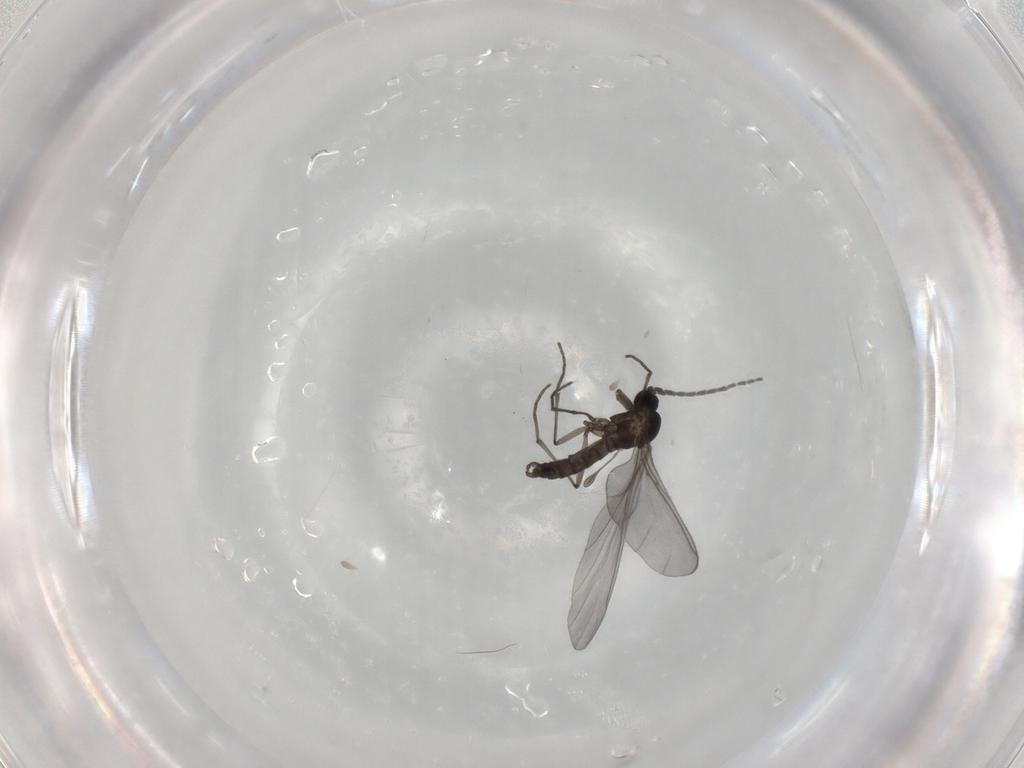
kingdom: Animalia
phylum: Arthropoda
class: Insecta
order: Diptera
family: Sciaridae
